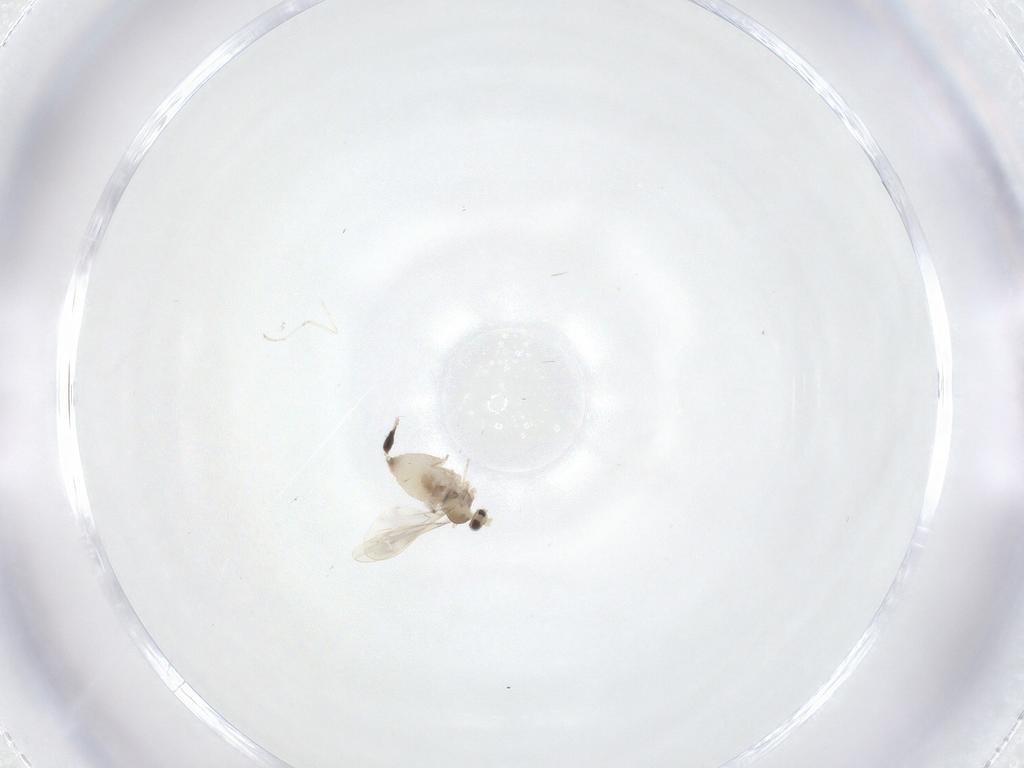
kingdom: Animalia
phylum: Arthropoda
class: Insecta
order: Diptera
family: Cecidomyiidae
